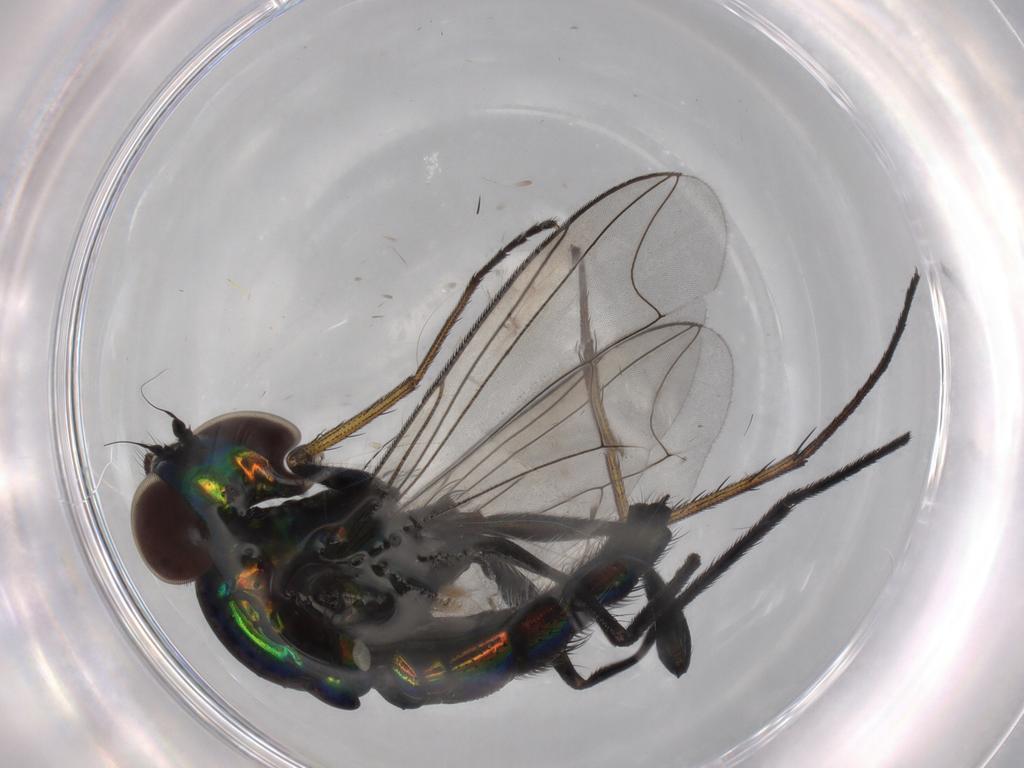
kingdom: Animalia
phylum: Arthropoda
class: Insecta
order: Diptera
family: Dolichopodidae
